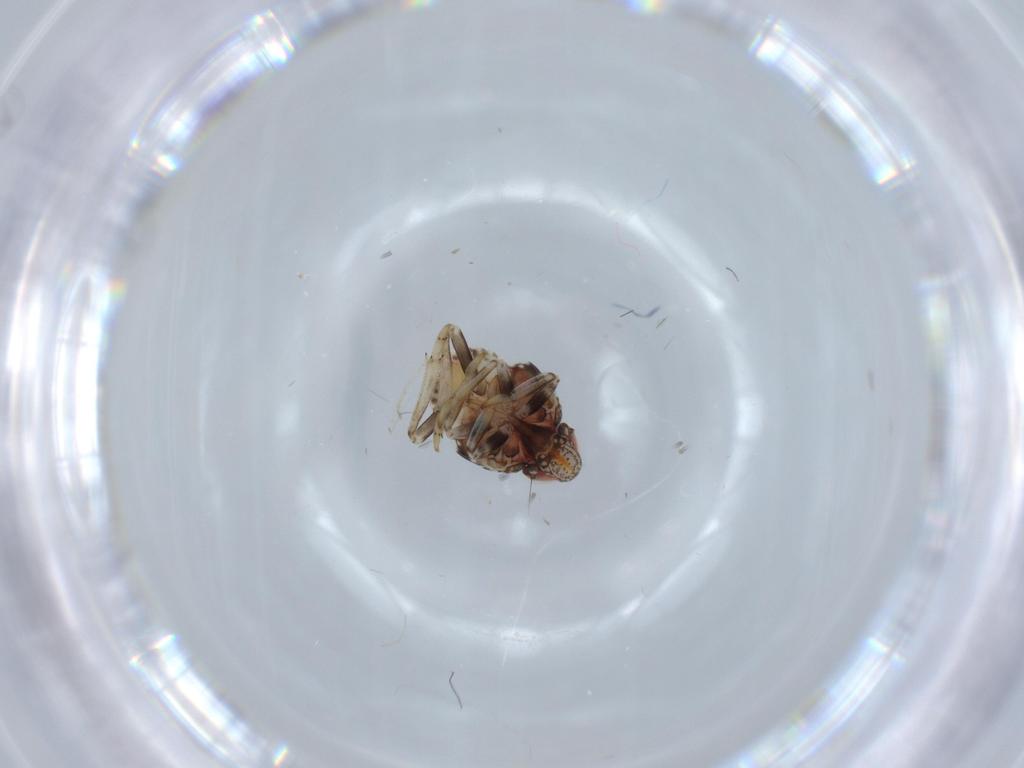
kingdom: Animalia
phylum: Arthropoda
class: Insecta
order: Hemiptera
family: Issidae
